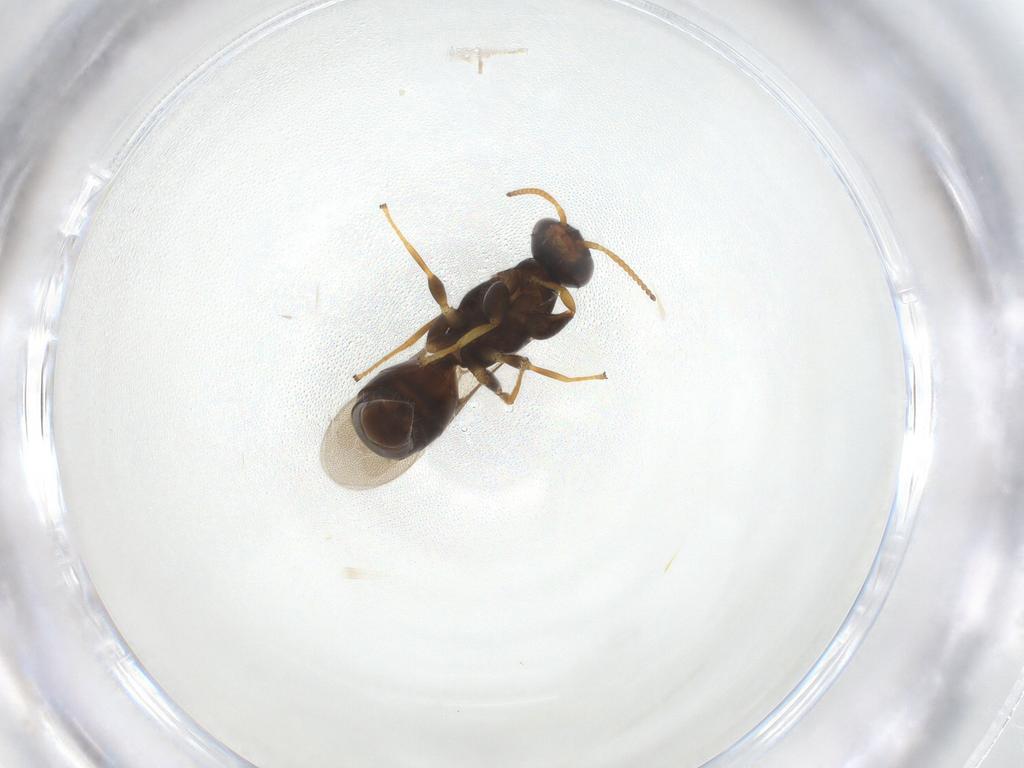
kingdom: Animalia
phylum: Arthropoda
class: Insecta
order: Hymenoptera
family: Bethylidae
